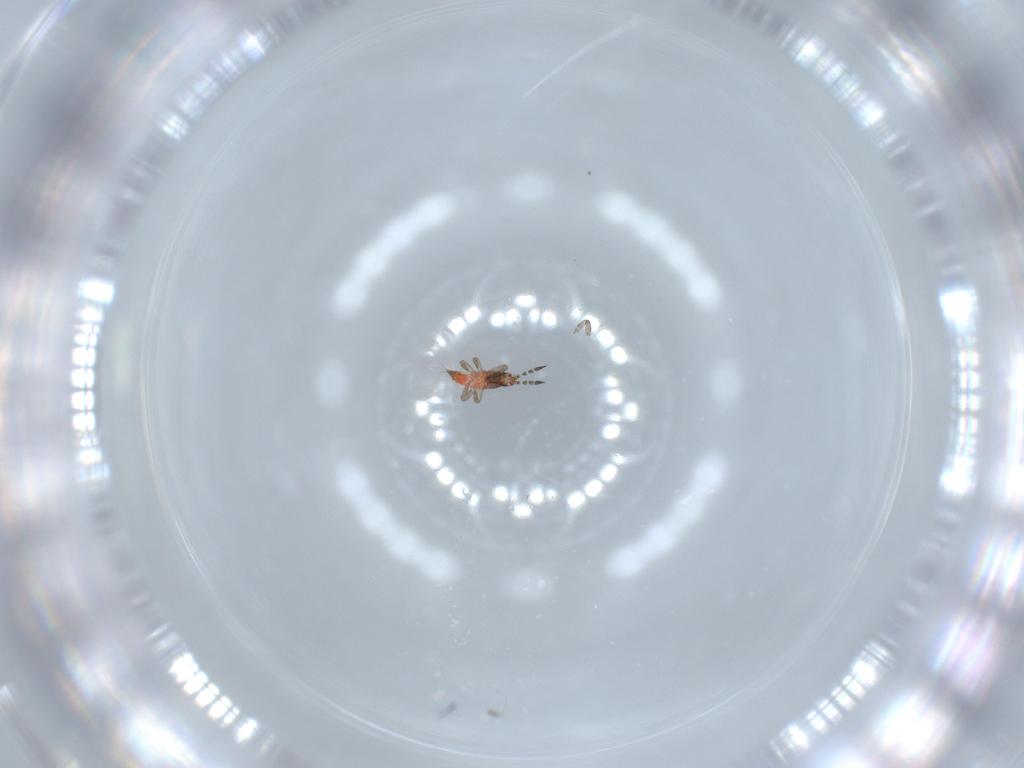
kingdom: Animalia
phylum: Arthropoda
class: Insecta
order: Thysanoptera
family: Phlaeothripidae
